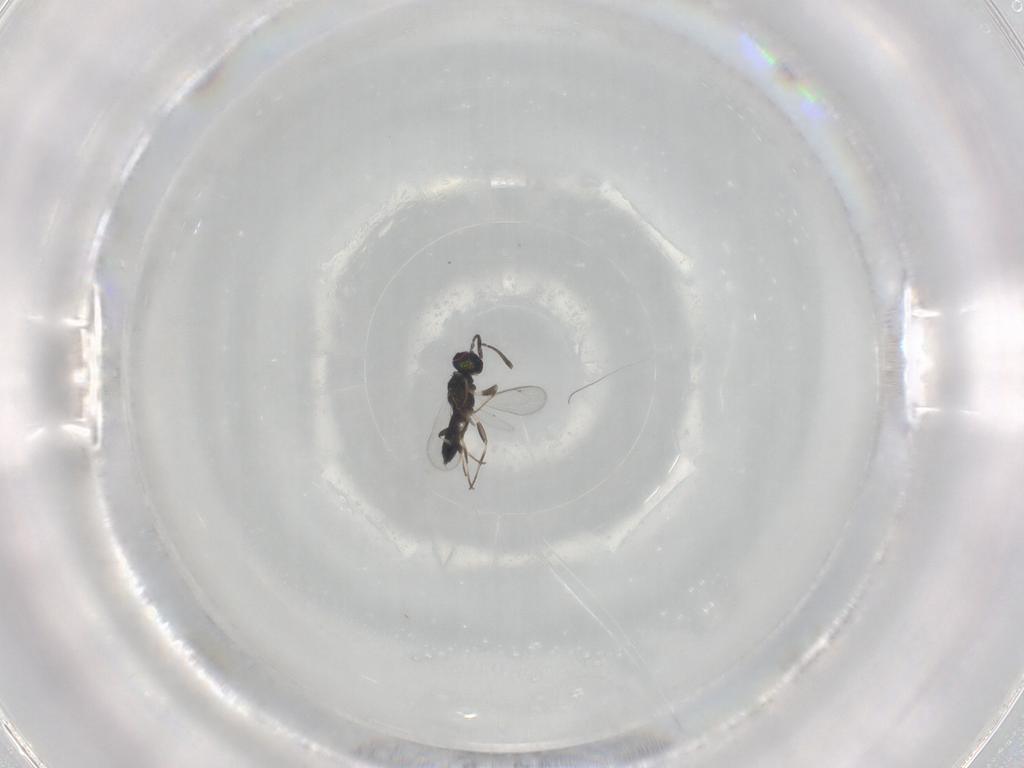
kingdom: Animalia
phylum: Arthropoda
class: Insecta
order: Hymenoptera
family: Eupelmidae
